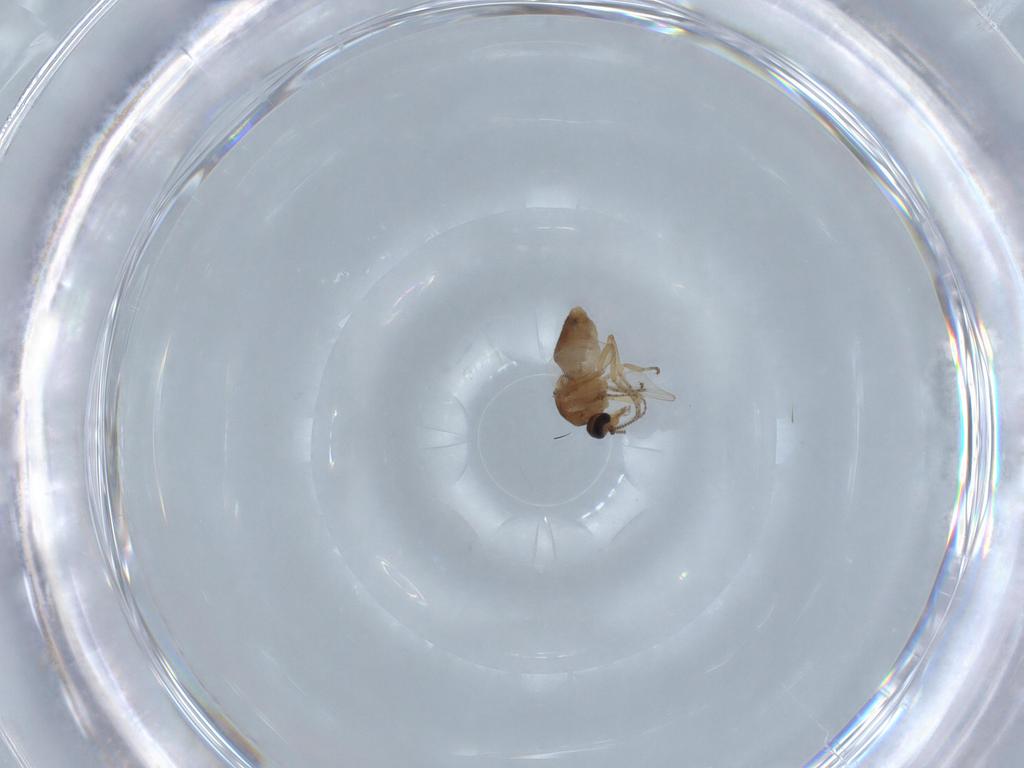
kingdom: Animalia
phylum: Arthropoda
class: Insecta
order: Diptera
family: Ceratopogonidae
